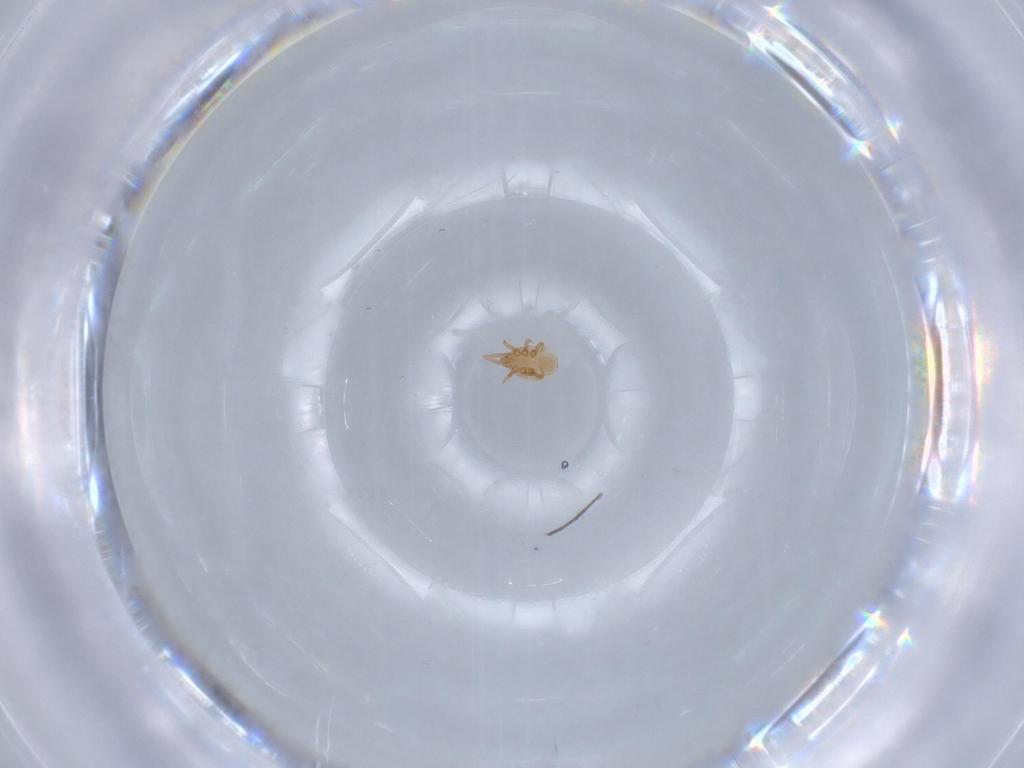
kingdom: Animalia
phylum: Arthropoda
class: Arachnida
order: Mesostigmata
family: Dinychidae
